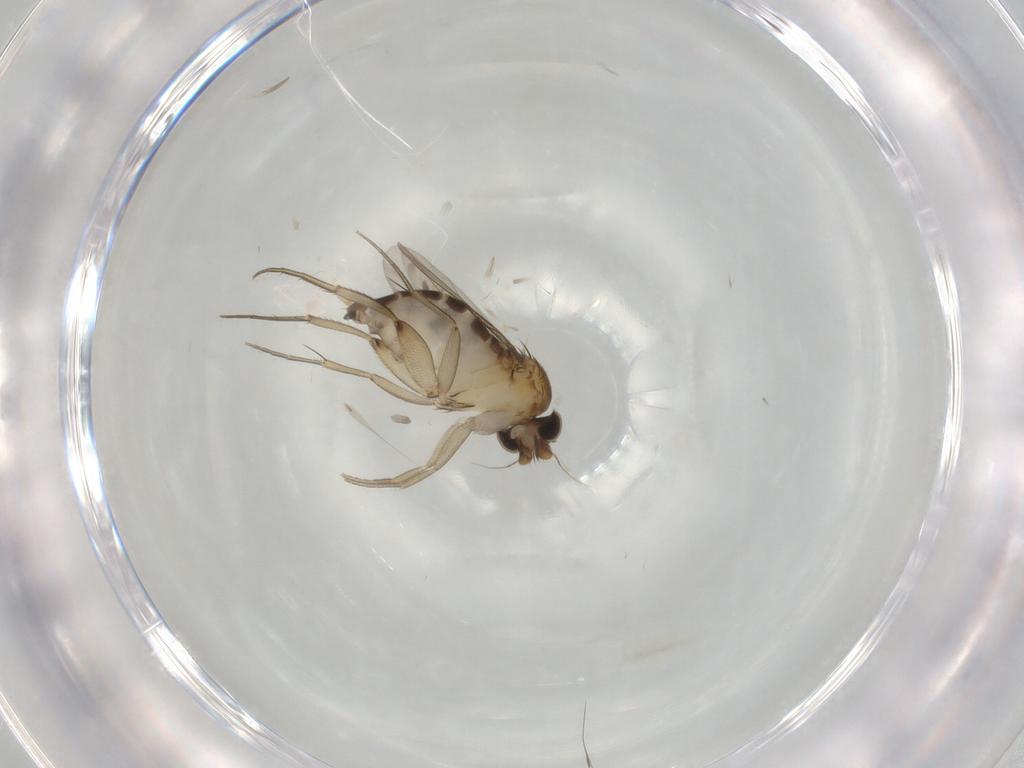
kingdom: Animalia
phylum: Arthropoda
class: Insecta
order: Diptera
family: Phoridae
